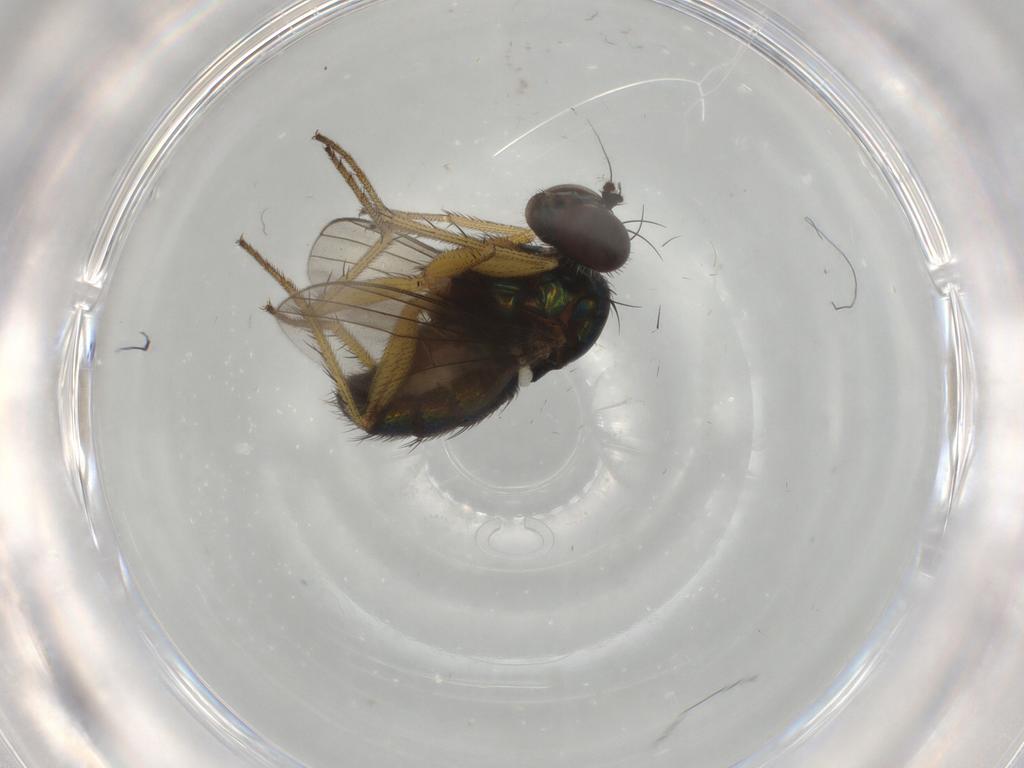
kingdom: Animalia
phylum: Arthropoda
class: Insecta
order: Diptera
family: Dolichopodidae
